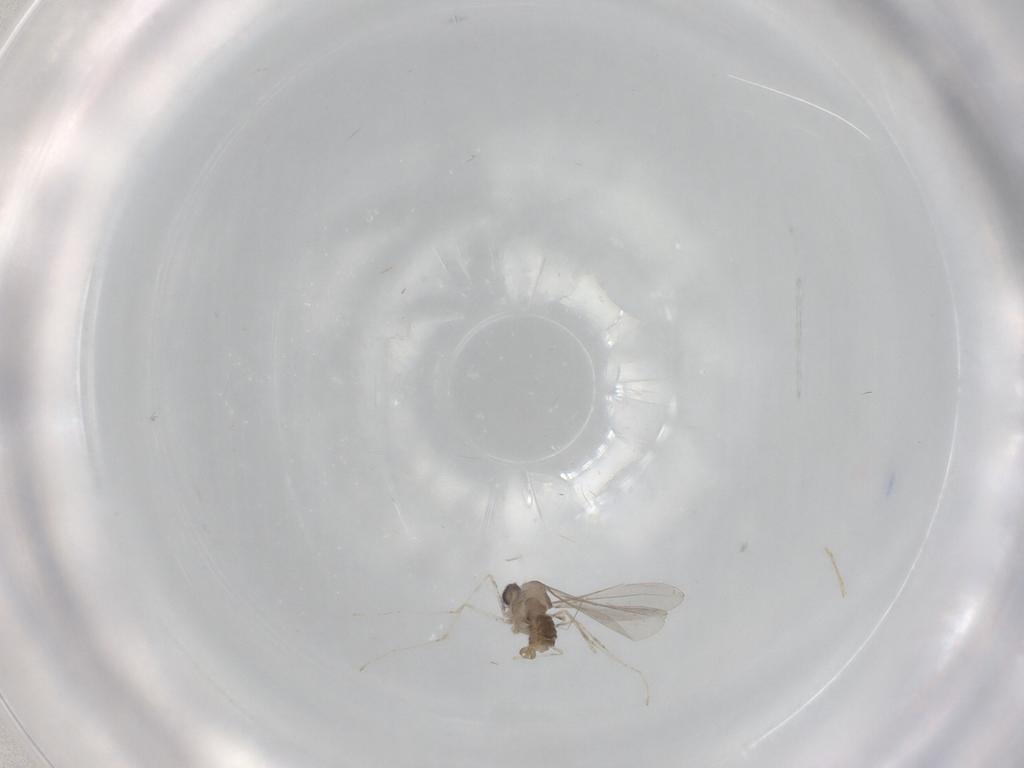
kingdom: Animalia
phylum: Arthropoda
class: Insecta
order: Diptera
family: Cecidomyiidae
